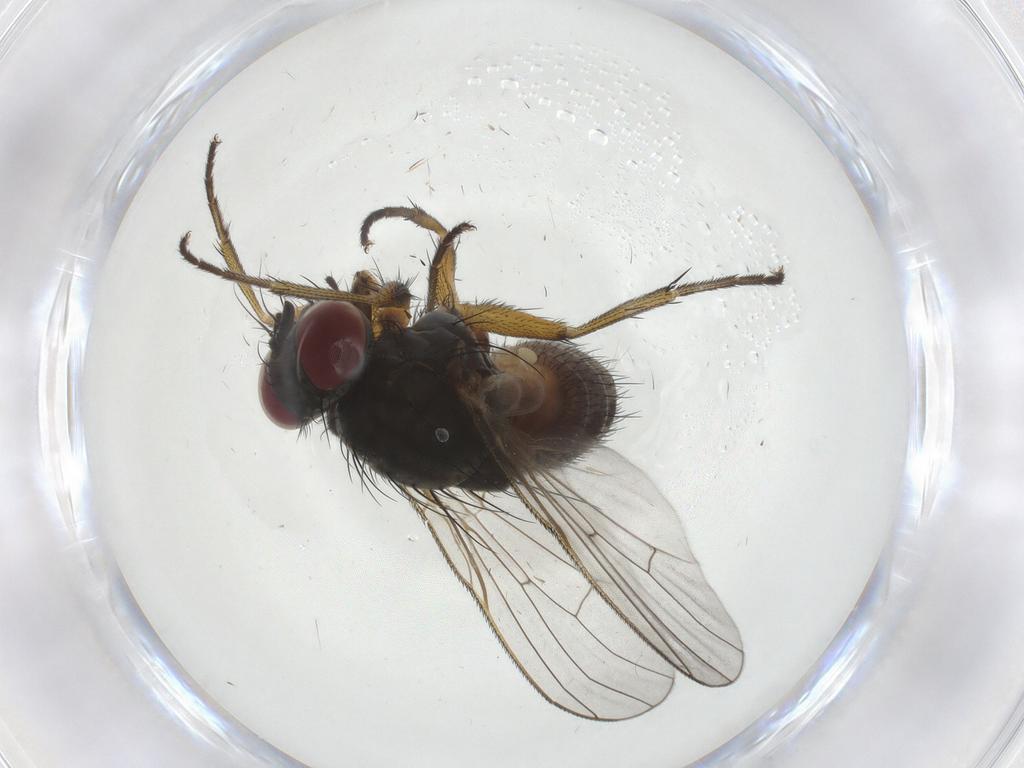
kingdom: Animalia
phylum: Arthropoda
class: Insecta
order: Diptera
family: Muscidae
